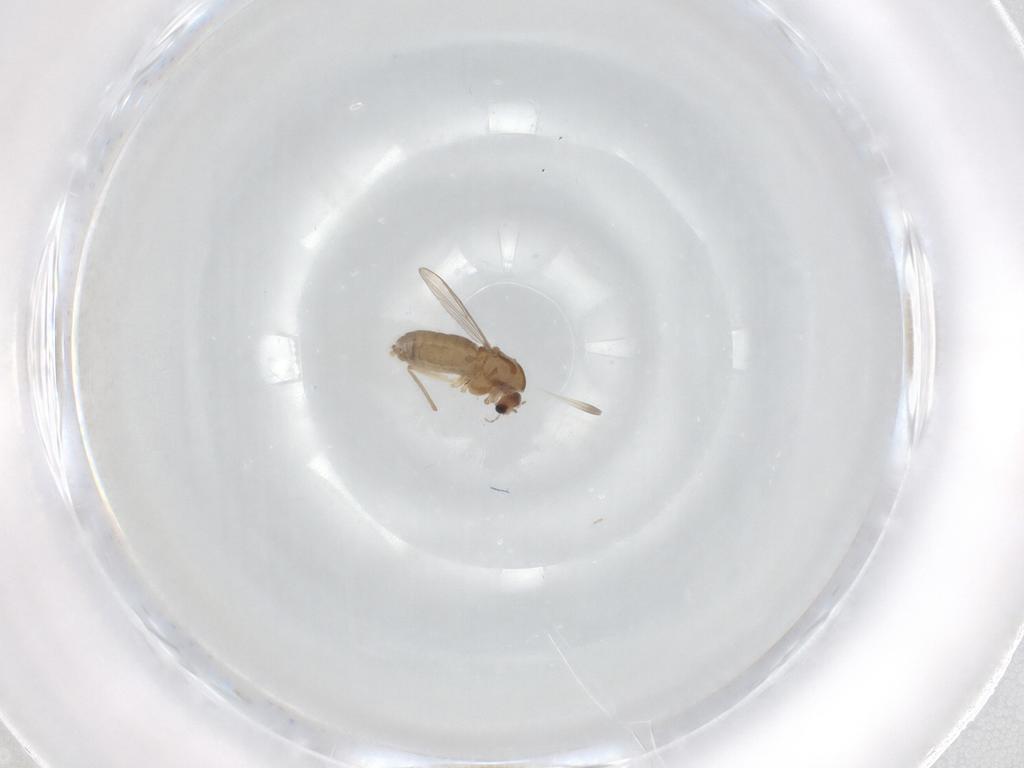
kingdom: Animalia
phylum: Arthropoda
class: Insecta
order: Diptera
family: Chironomidae
